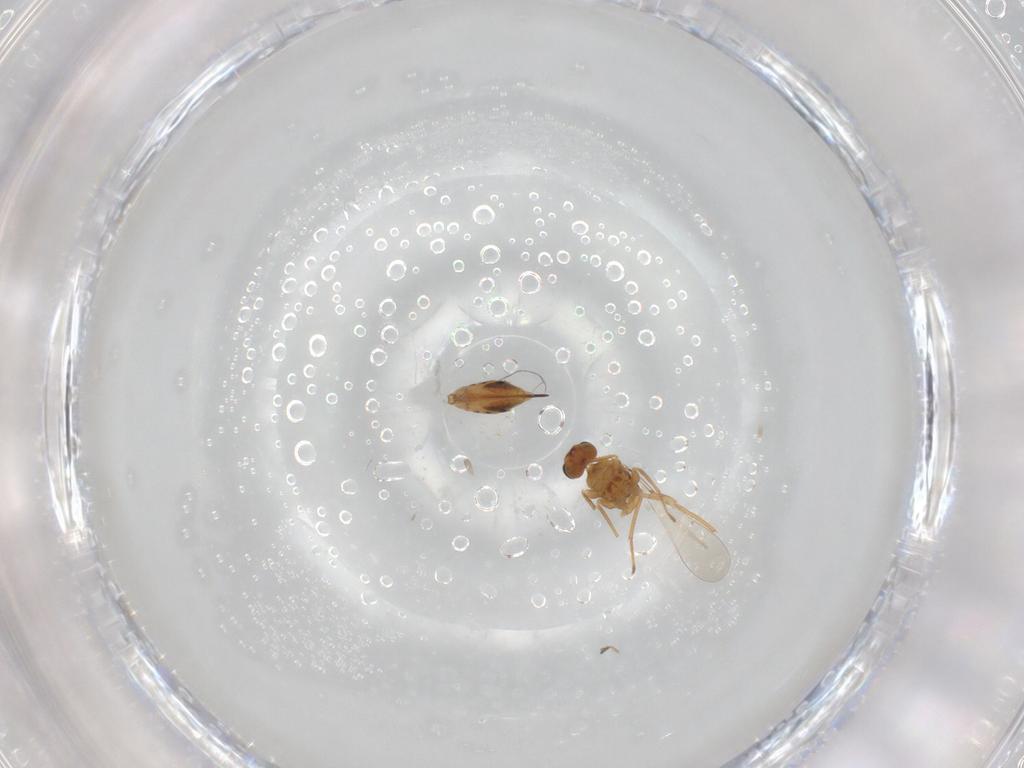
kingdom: Animalia
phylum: Arthropoda
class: Insecta
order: Hymenoptera
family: Mymaridae
